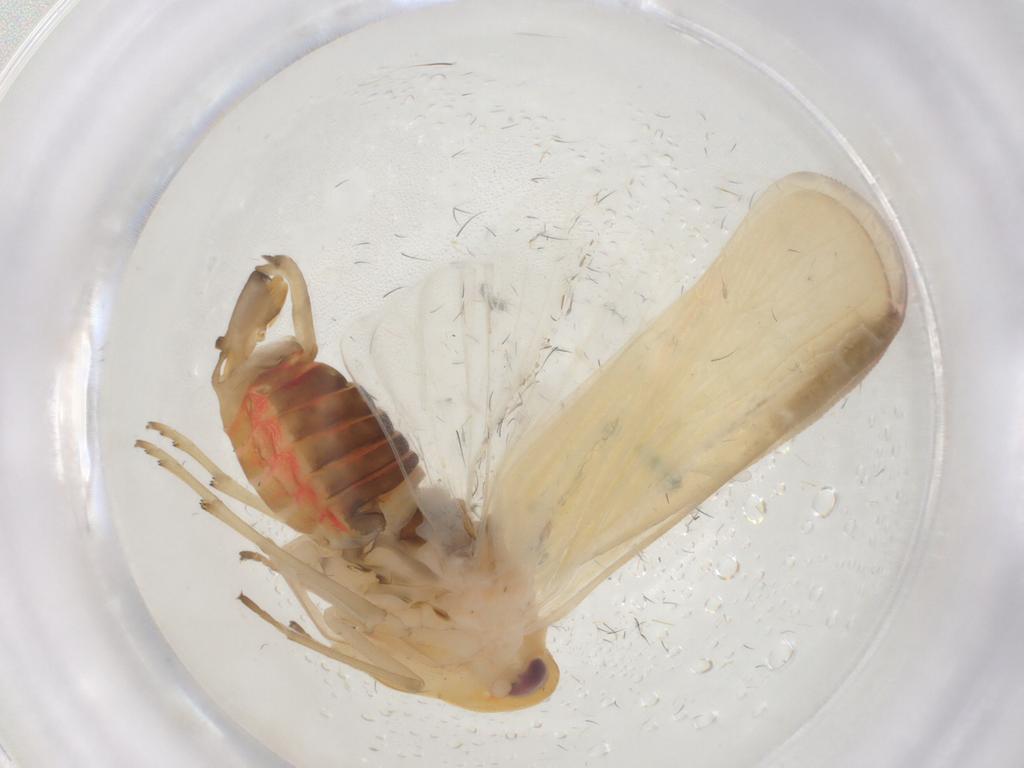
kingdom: Animalia
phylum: Arthropoda
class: Insecta
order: Hemiptera
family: Derbidae
